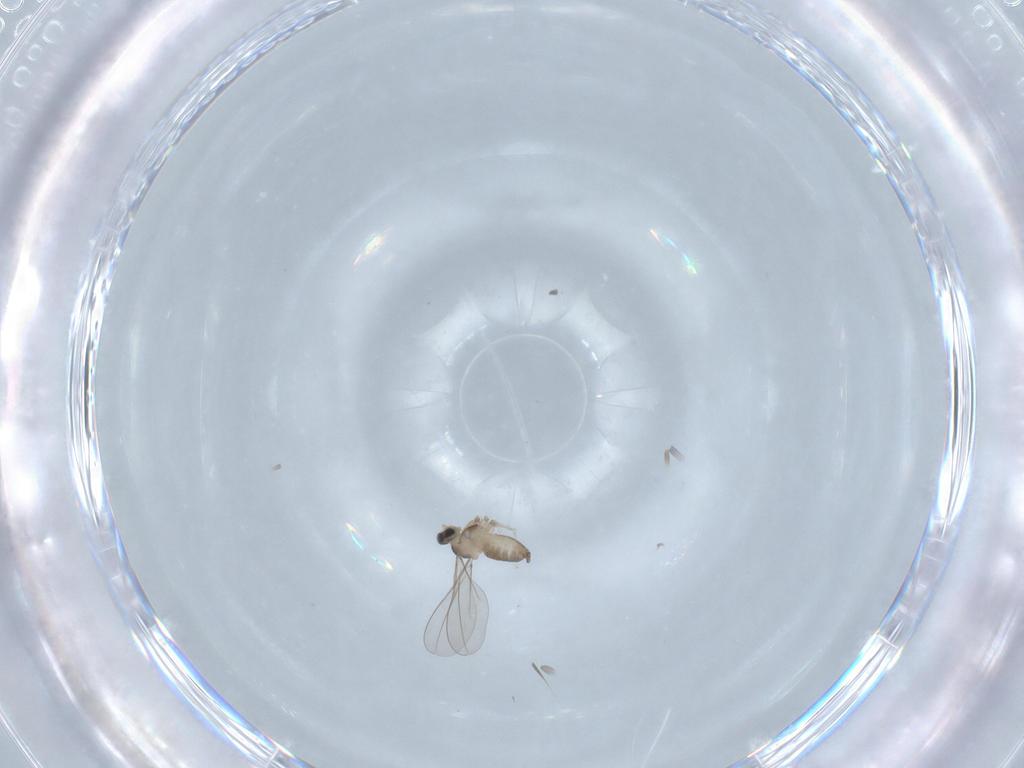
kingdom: Animalia
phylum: Arthropoda
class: Insecta
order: Diptera
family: Cecidomyiidae
